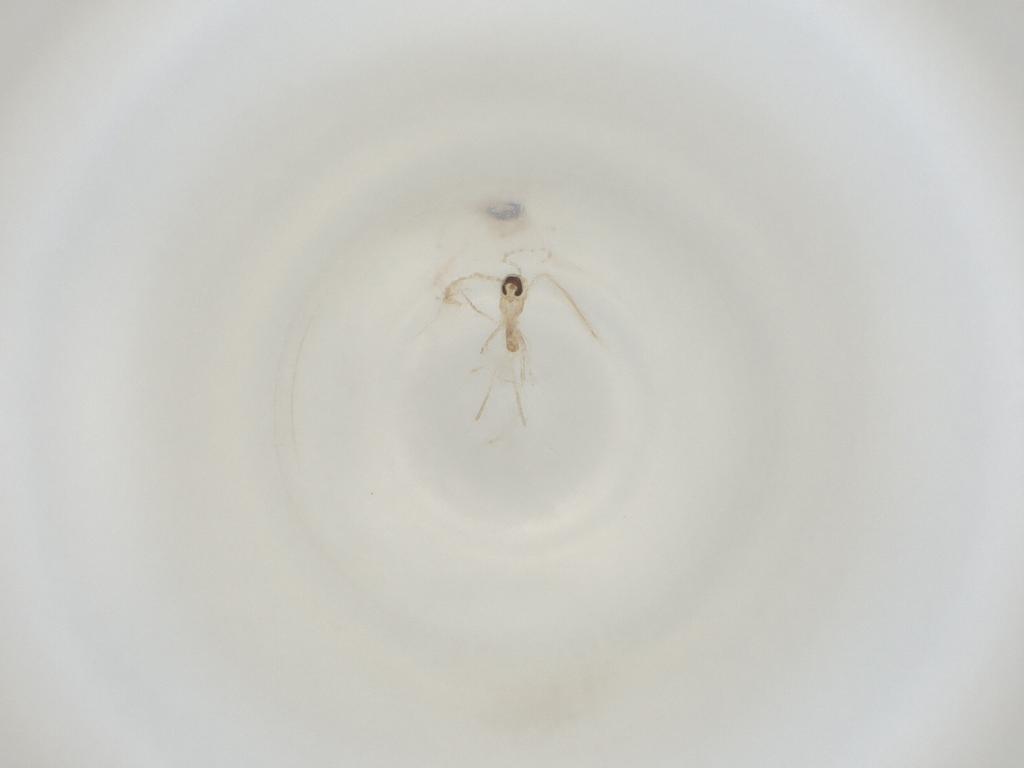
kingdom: Animalia
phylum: Arthropoda
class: Insecta
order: Diptera
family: Cecidomyiidae
